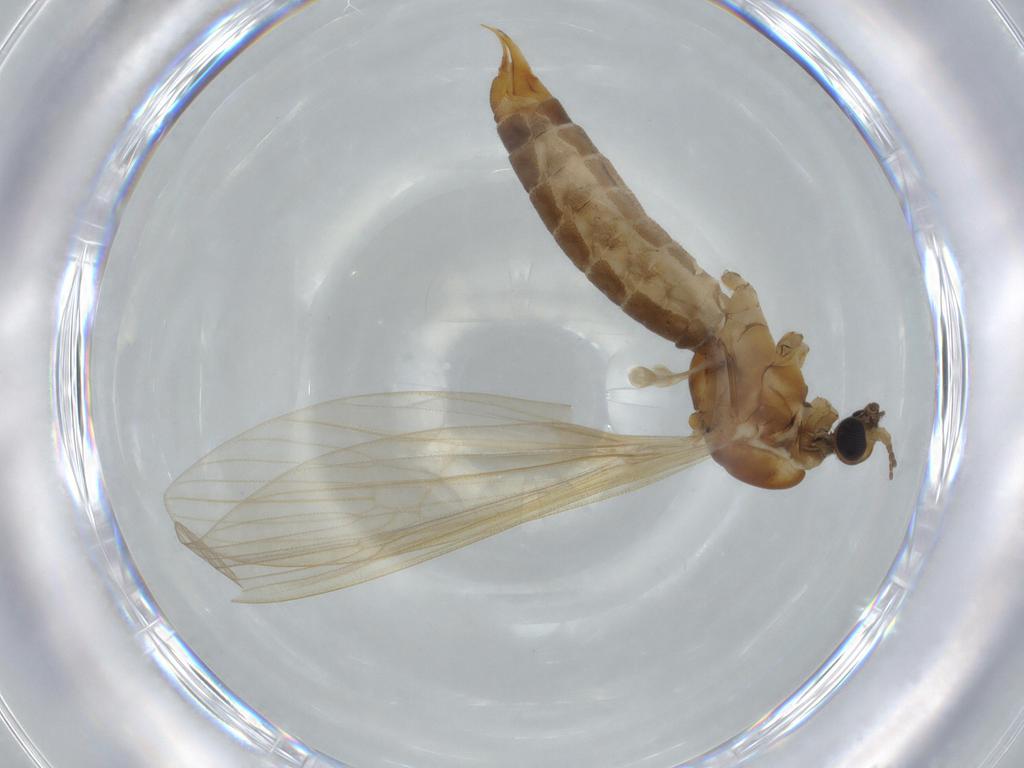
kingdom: Animalia
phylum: Arthropoda
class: Insecta
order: Diptera
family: Limoniidae
